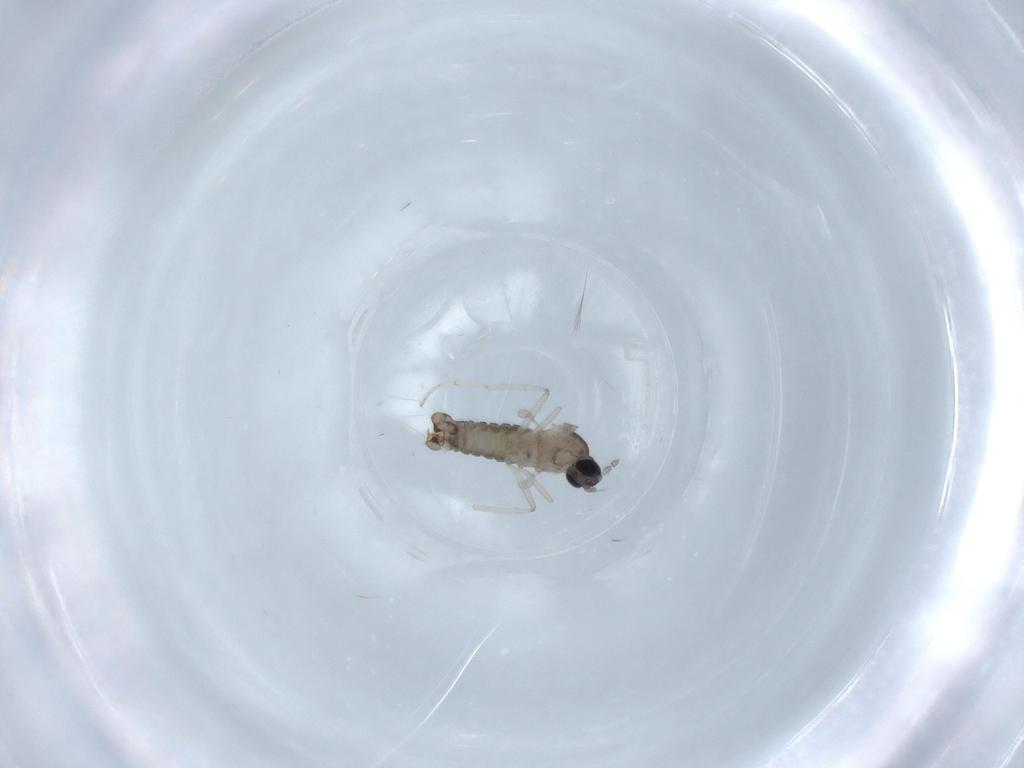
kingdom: Animalia
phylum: Arthropoda
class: Insecta
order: Diptera
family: Cecidomyiidae
